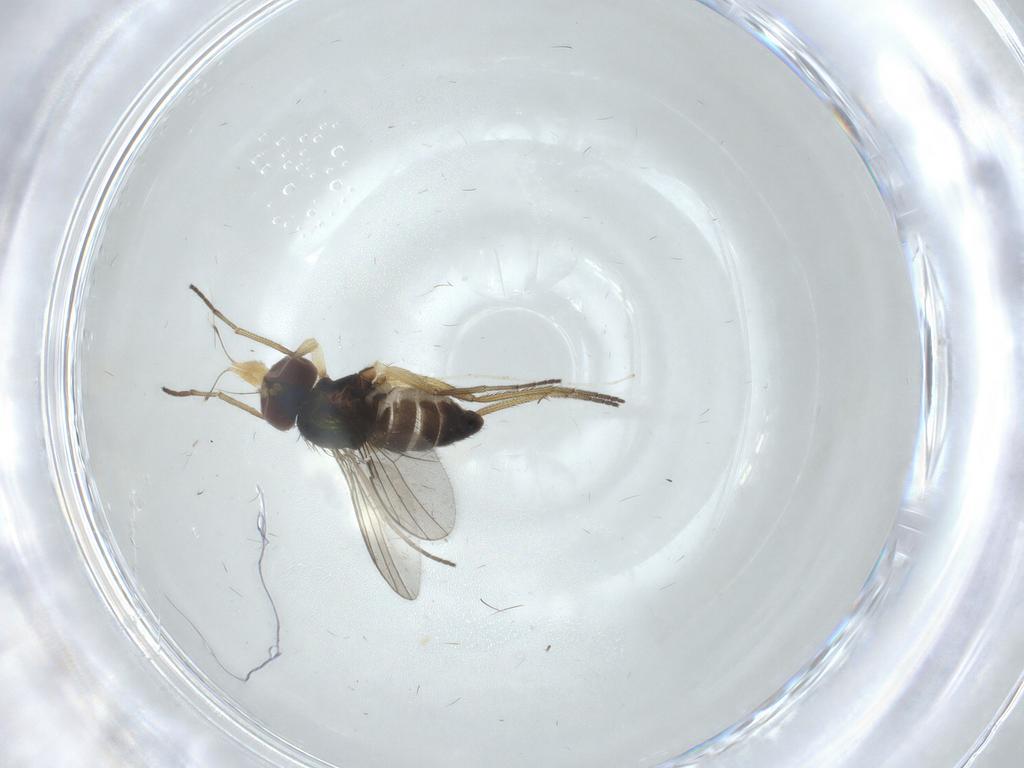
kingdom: Animalia
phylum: Arthropoda
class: Insecta
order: Diptera
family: Dolichopodidae
